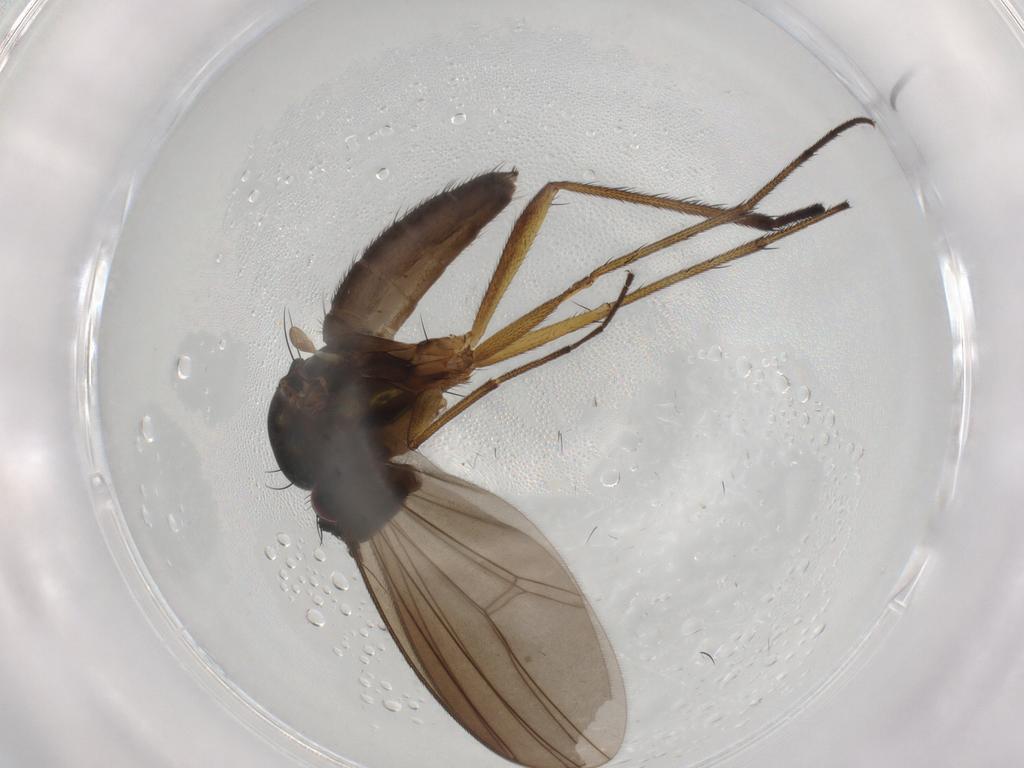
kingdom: Animalia
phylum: Arthropoda
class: Insecta
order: Diptera
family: Dolichopodidae
